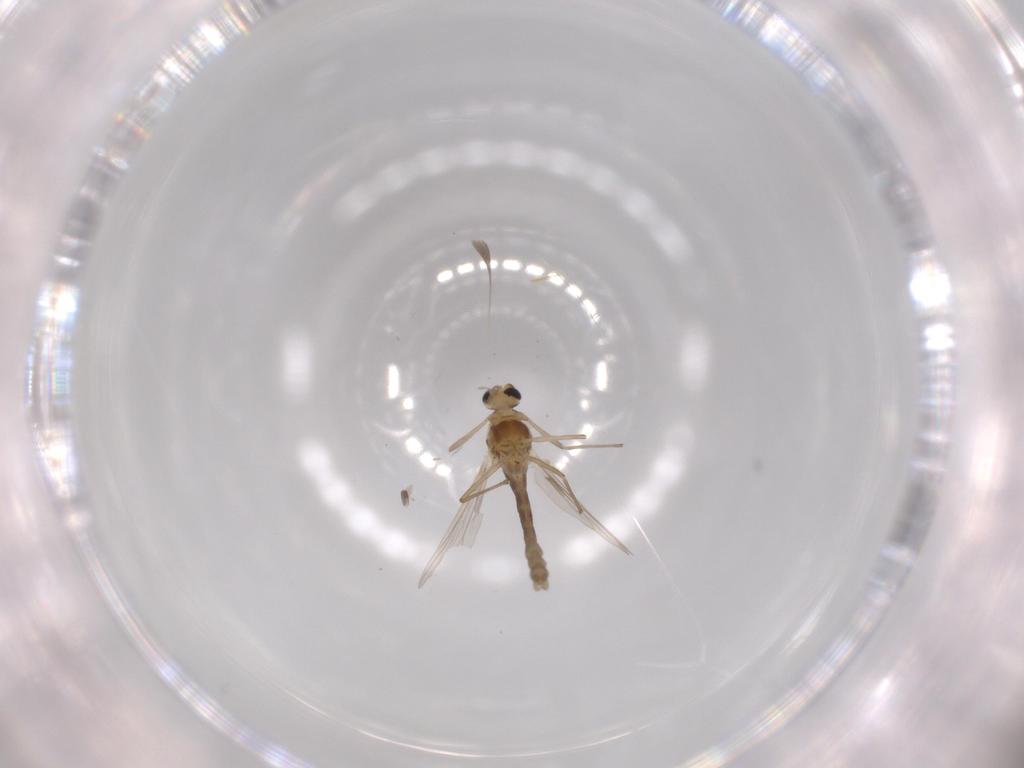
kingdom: Animalia
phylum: Arthropoda
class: Insecta
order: Diptera
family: Chironomidae
